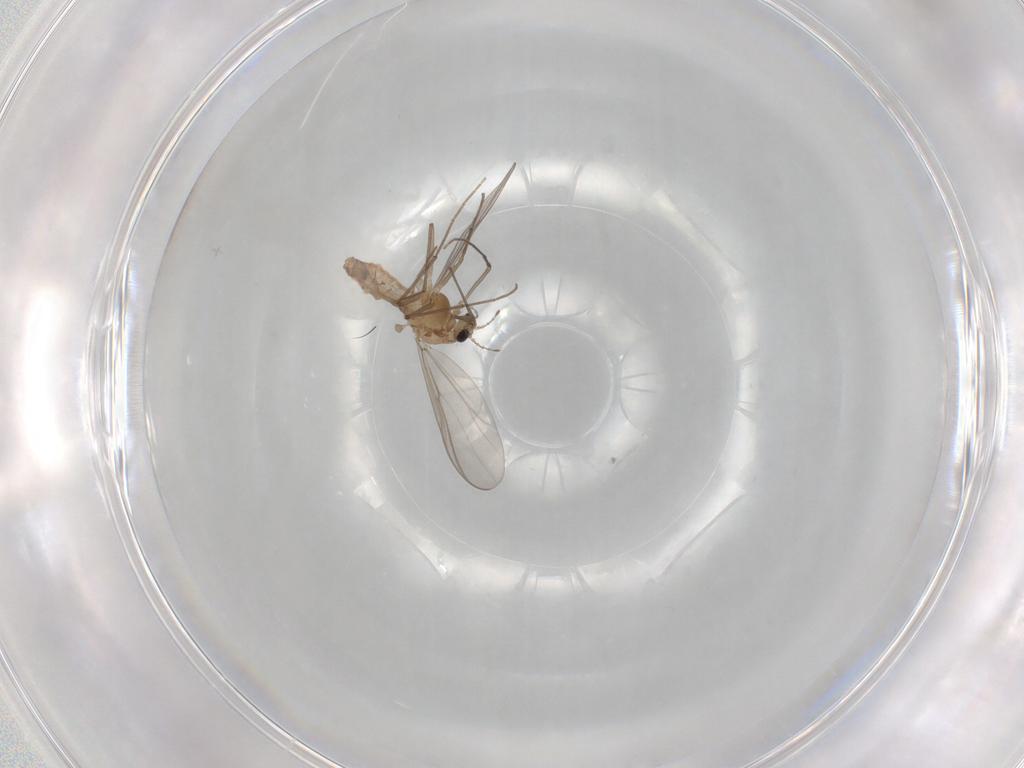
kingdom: Animalia
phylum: Arthropoda
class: Insecta
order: Diptera
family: Chironomidae
